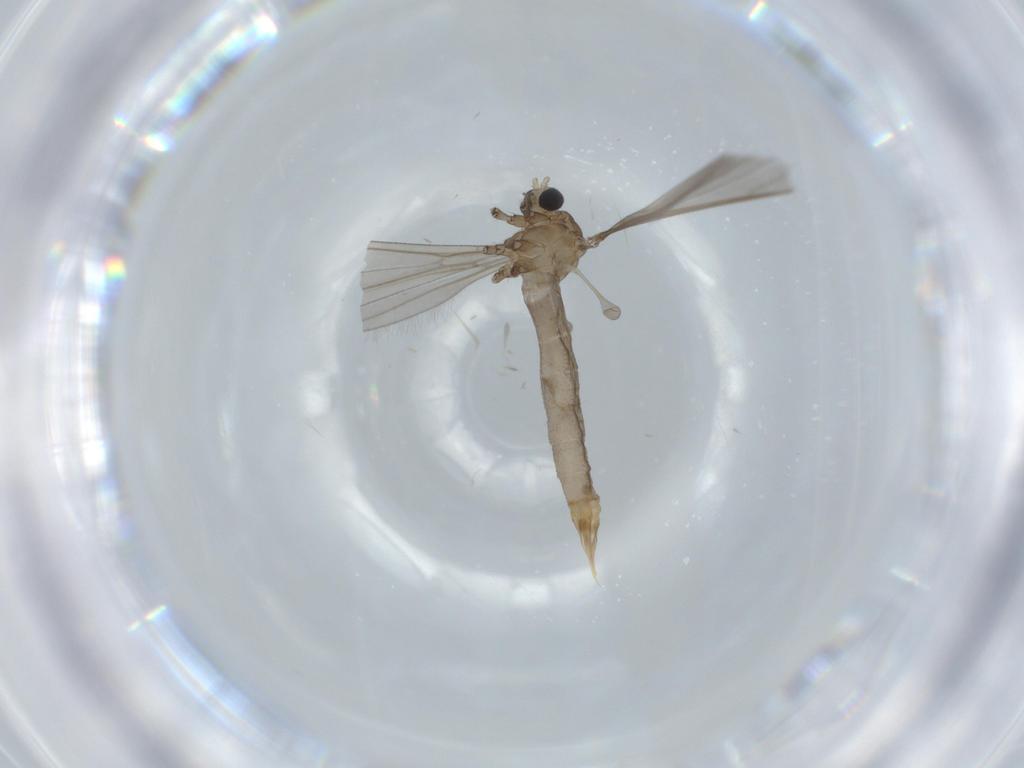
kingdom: Animalia
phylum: Arthropoda
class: Insecta
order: Diptera
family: Limoniidae
